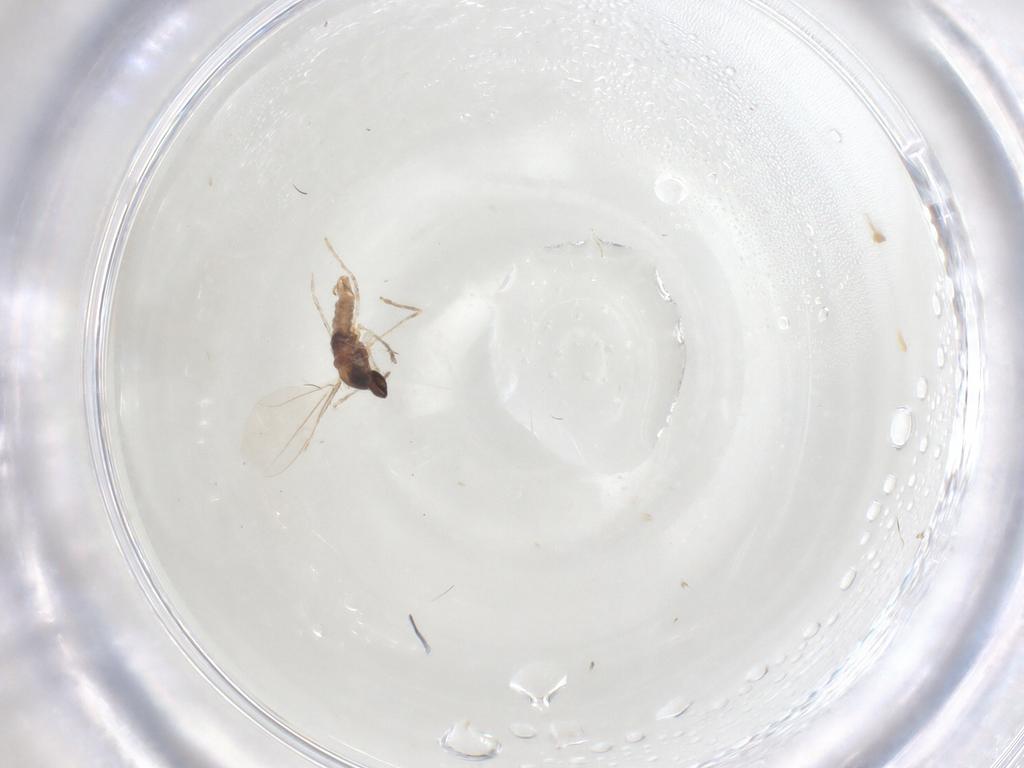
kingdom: Animalia
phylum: Arthropoda
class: Insecta
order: Diptera
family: Cecidomyiidae
